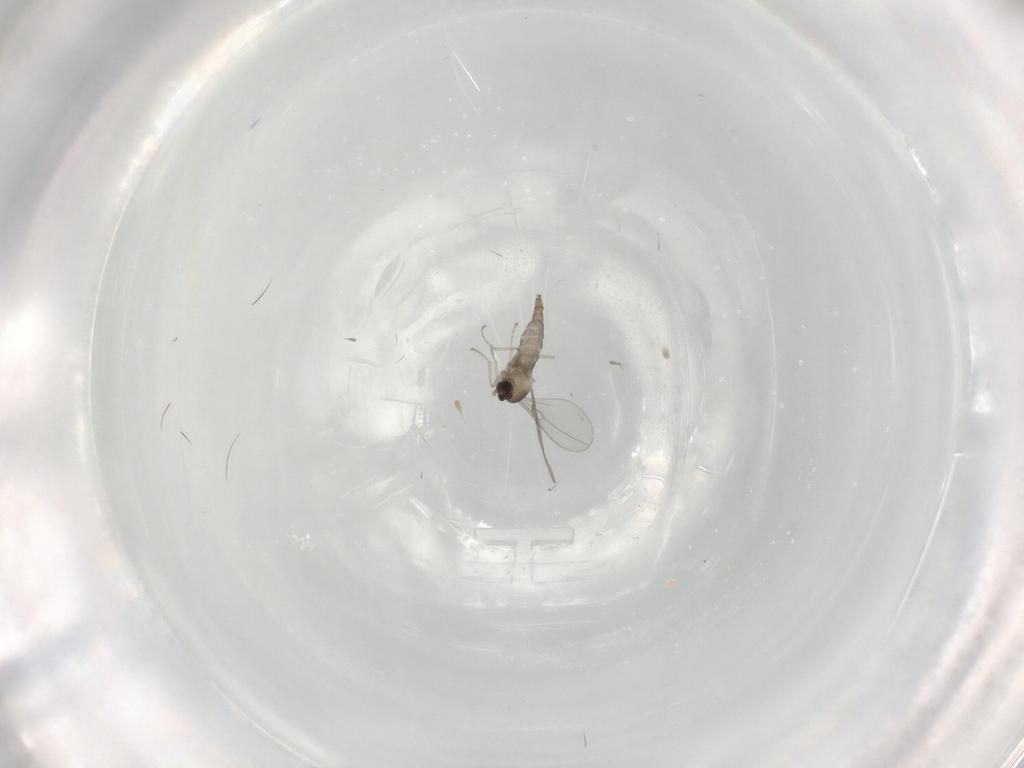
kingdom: Animalia
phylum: Arthropoda
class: Insecta
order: Diptera
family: Cecidomyiidae
